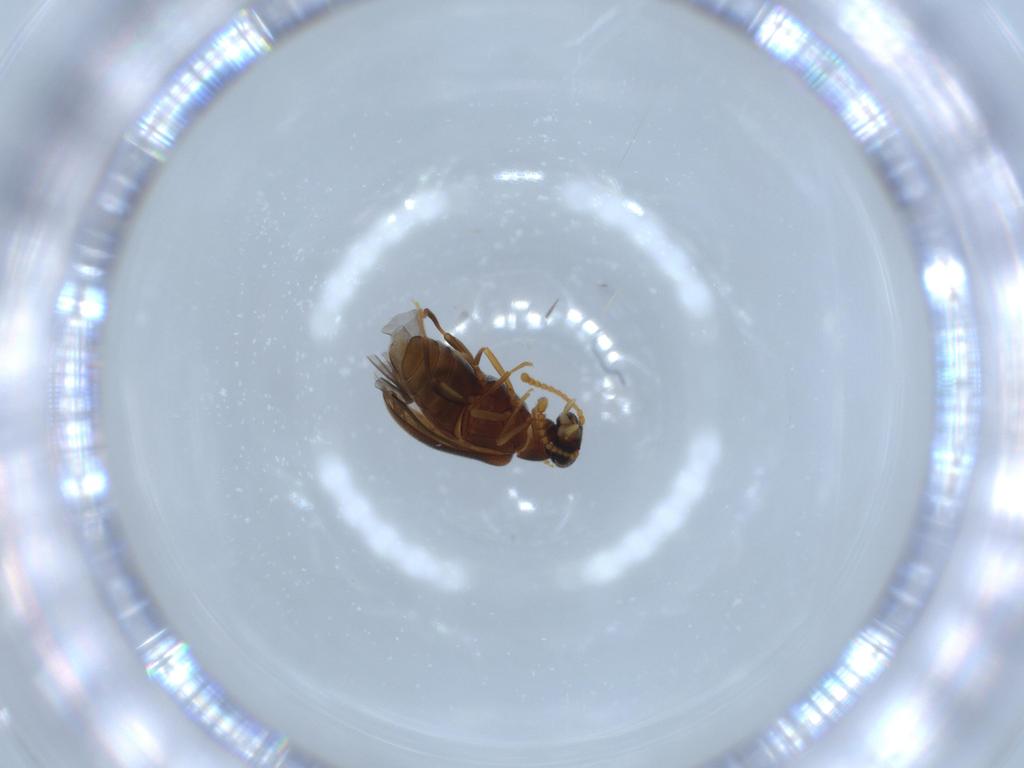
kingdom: Animalia
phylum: Arthropoda
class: Insecta
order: Coleoptera
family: Aderidae
